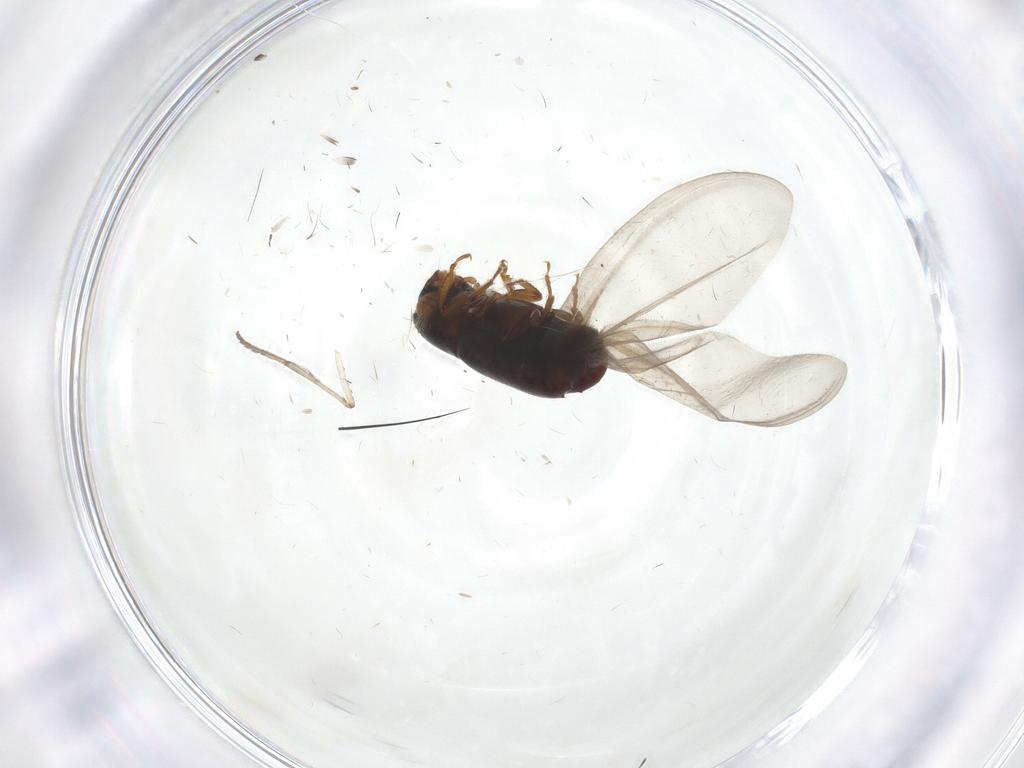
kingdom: Animalia
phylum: Arthropoda
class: Insecta
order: Coleoptera
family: Curculionidae
